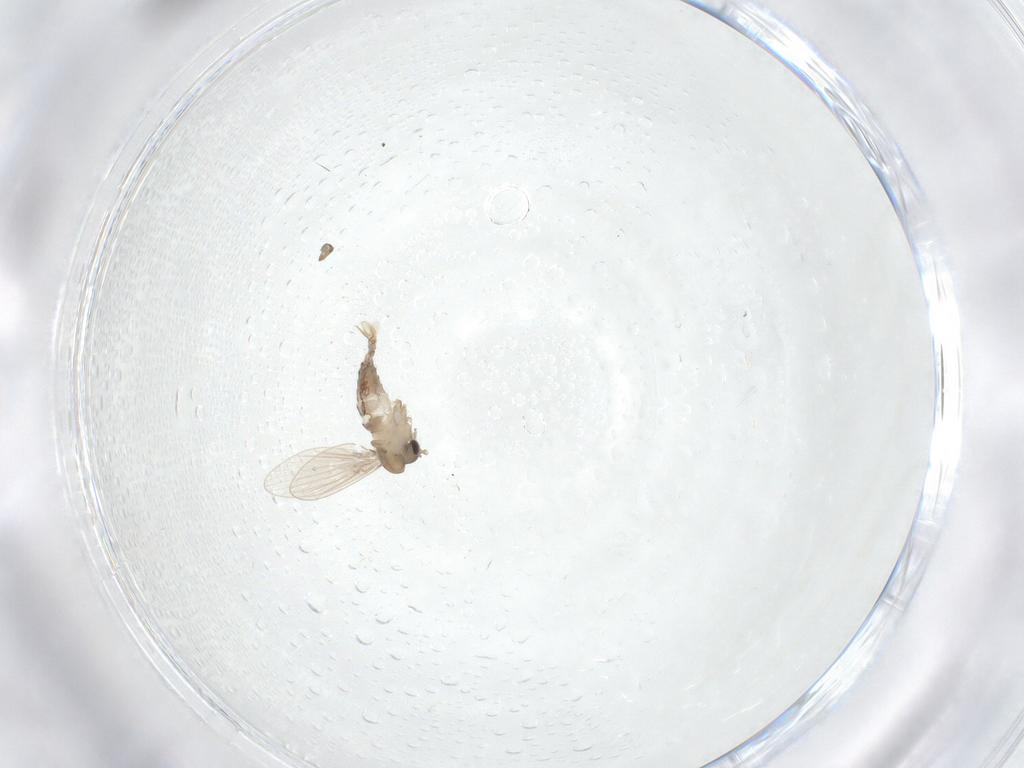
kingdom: Animalia
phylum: Arthropoda
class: Insecta
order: Diptera
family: Psychodidae
